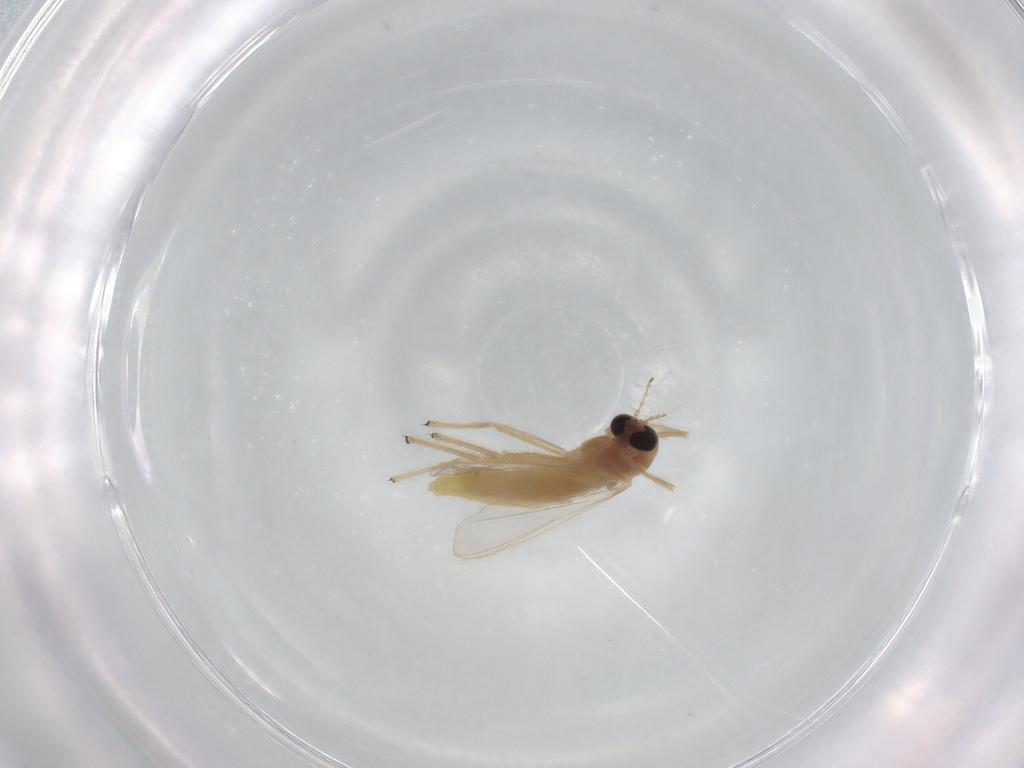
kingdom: Animalia
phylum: Arthropoda
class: Insecta
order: Diptera
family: Chironomidae
